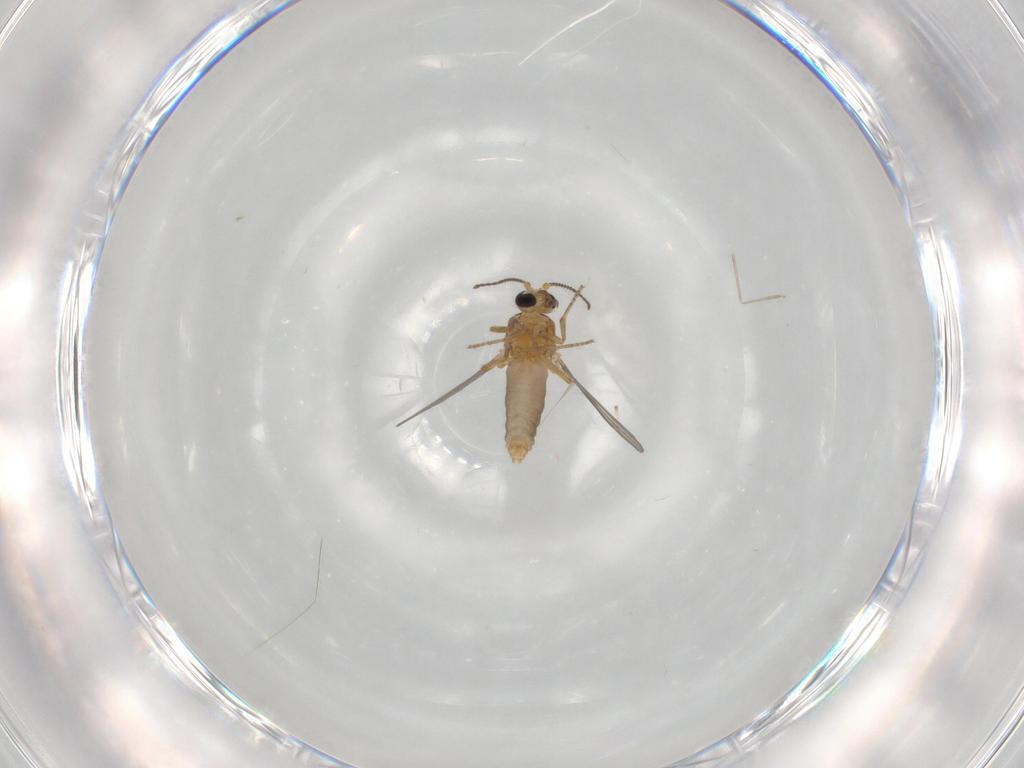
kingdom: Animalia
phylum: Arthropoda
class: Insecta
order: Diptera
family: Ceratopogonidae
